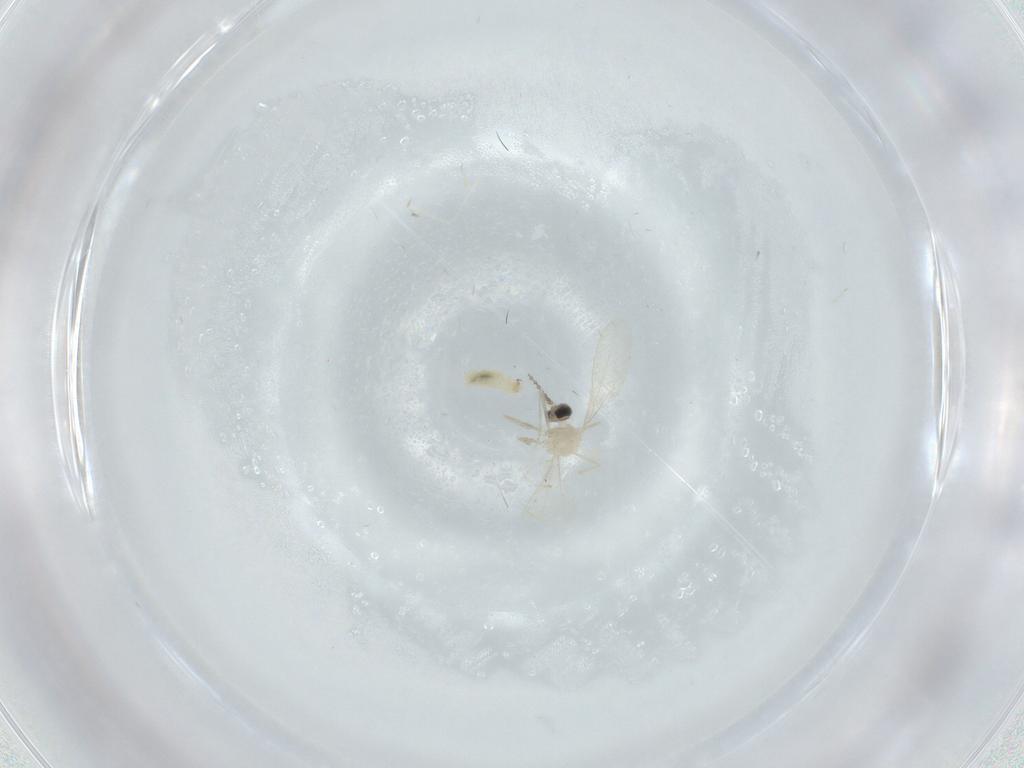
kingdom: Animalia
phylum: Arthropoda
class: Insecta
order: Diptera
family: Cecidomyiidae
